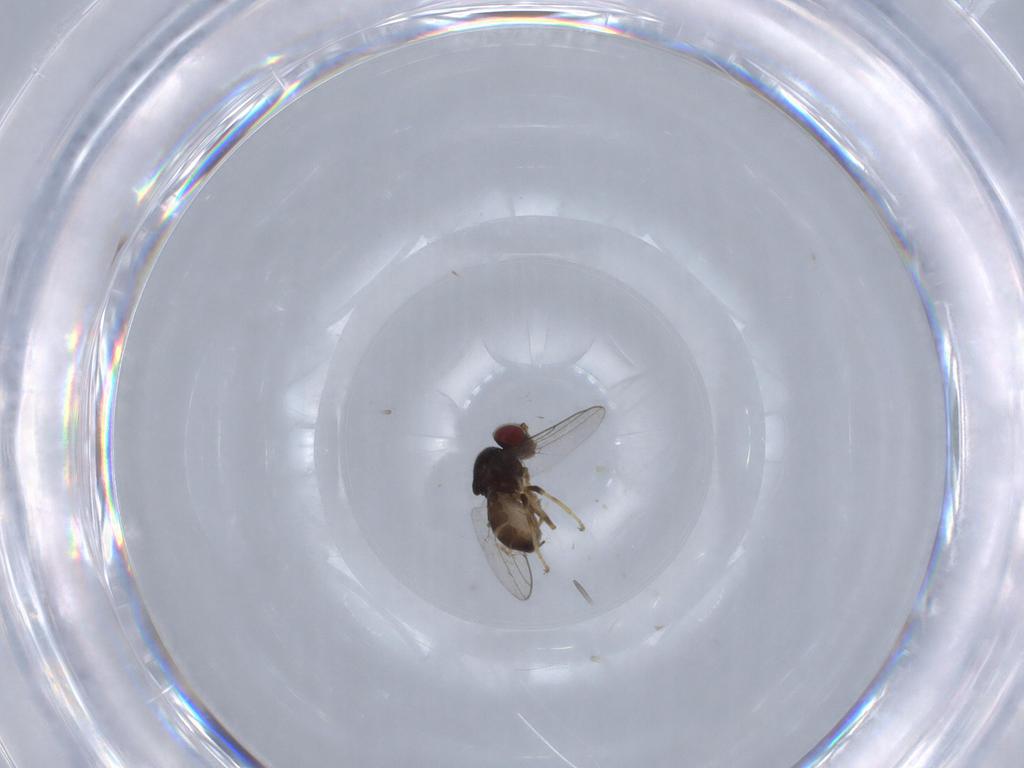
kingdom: Animalia
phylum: Arthropoda
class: Insecta
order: Diptera
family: Chloropidae
